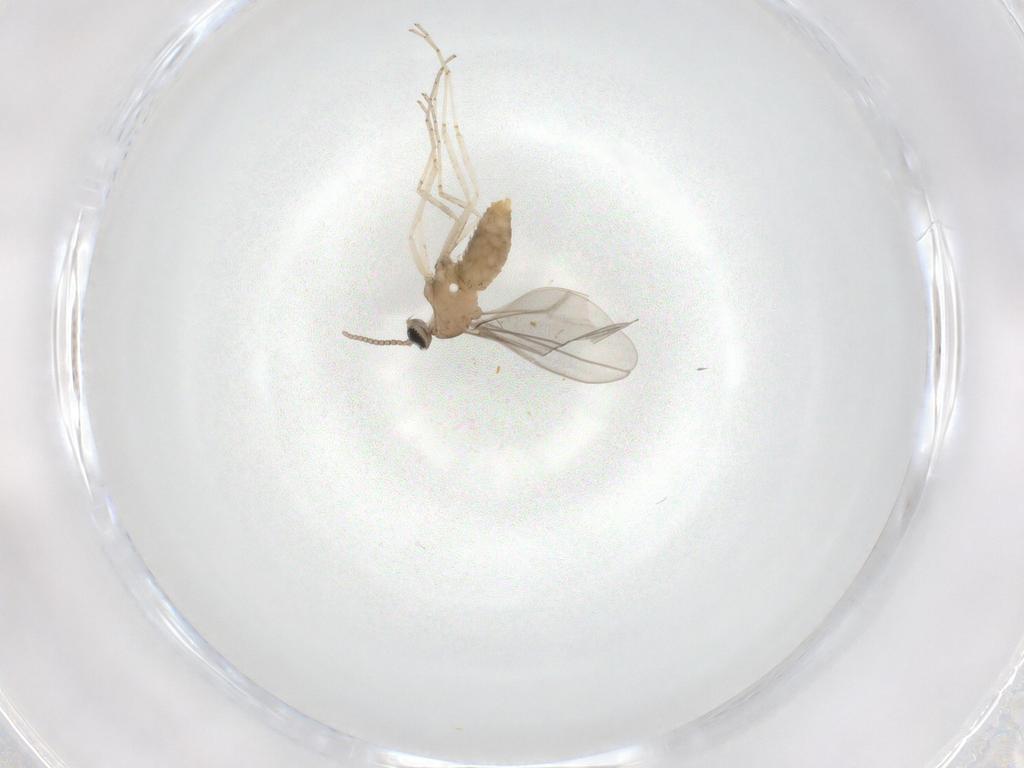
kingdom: Animalia
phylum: Arthropoda
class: Insecta
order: Diptera
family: Cecidomyiidae
